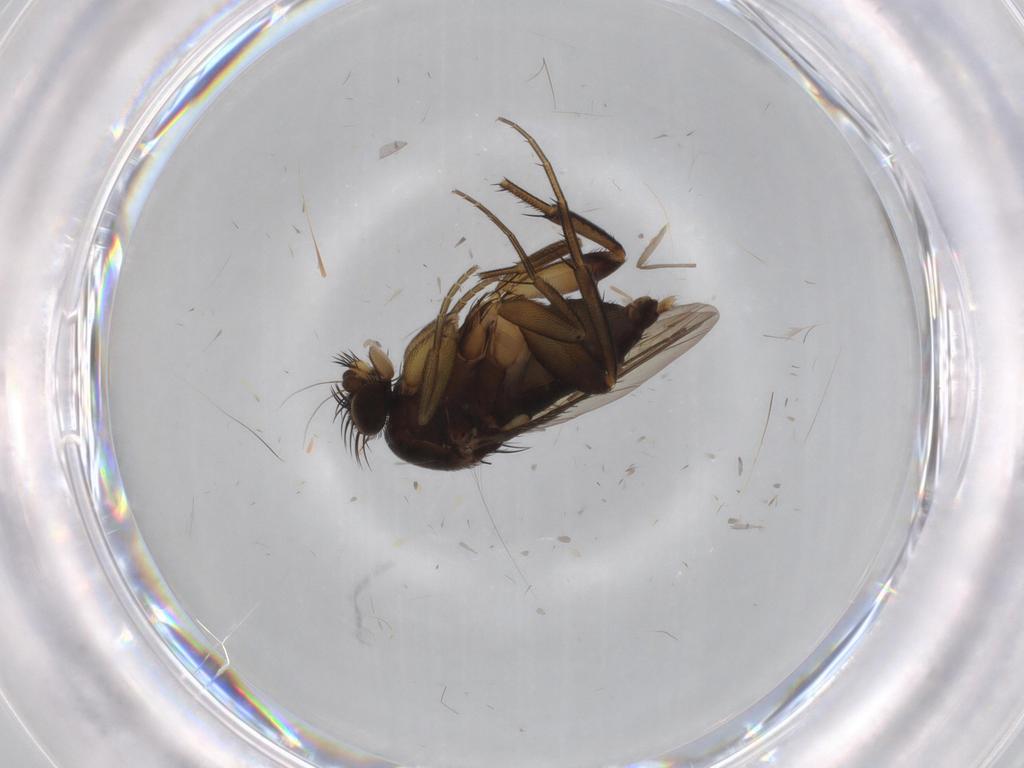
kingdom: Animalia
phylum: Arthropoda
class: Insecta
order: Diptera
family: Phoridae
